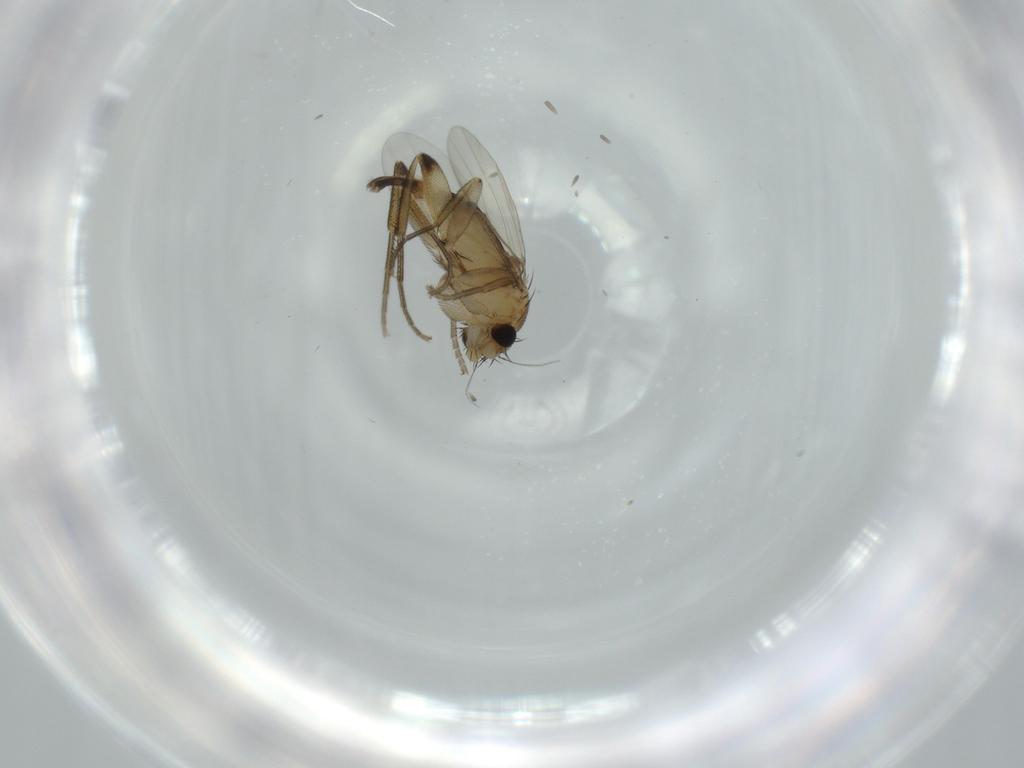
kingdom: Animalia
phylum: Arthropoda
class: Insecta
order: Diptera
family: Phoridae
